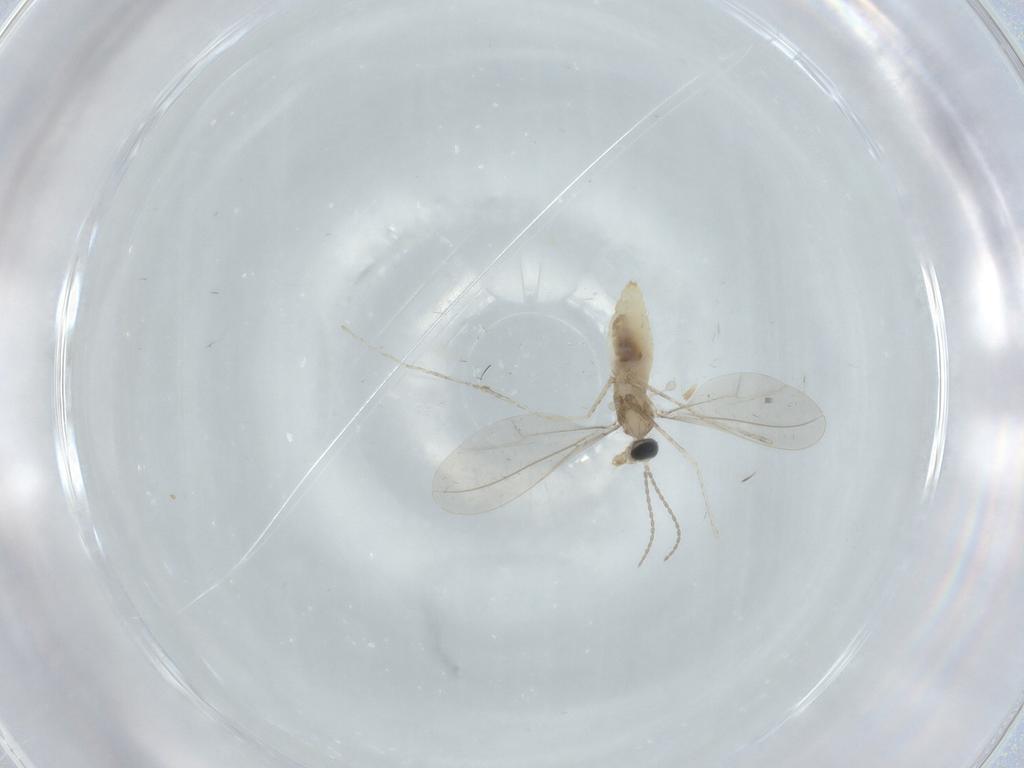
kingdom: Animalia
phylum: Arthropoda
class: Insecta
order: Diptera
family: Cecidomyiidae
